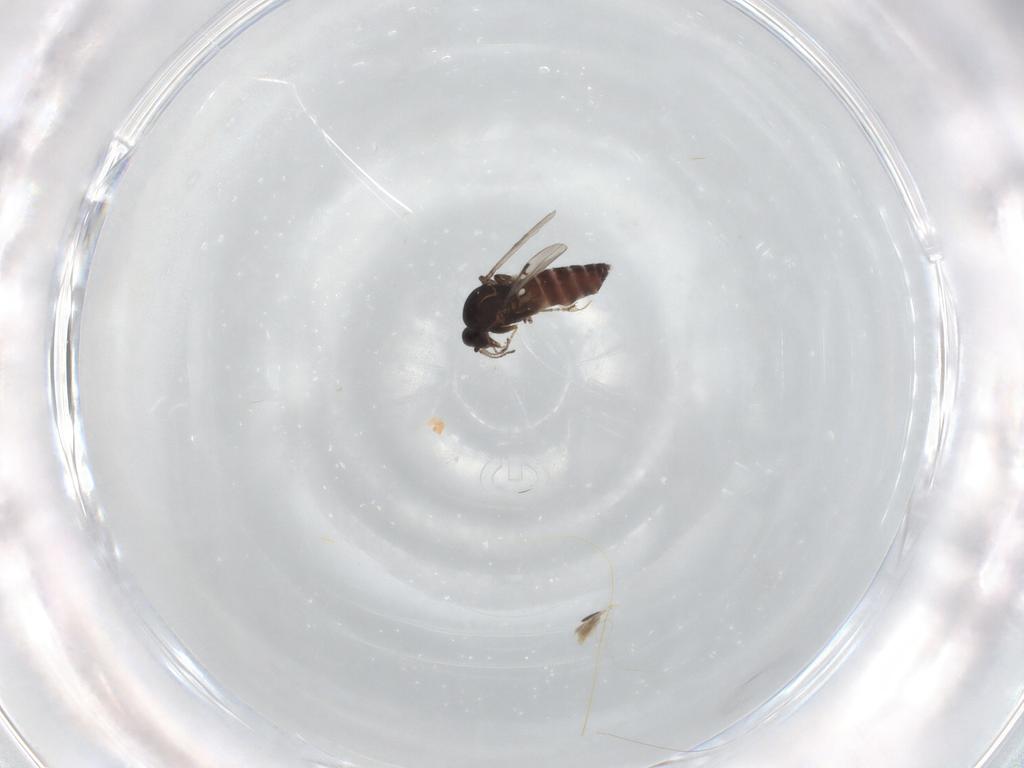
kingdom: Animalia
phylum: Arthropoda
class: Insecta
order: Diptera
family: Ceratopogonidae
